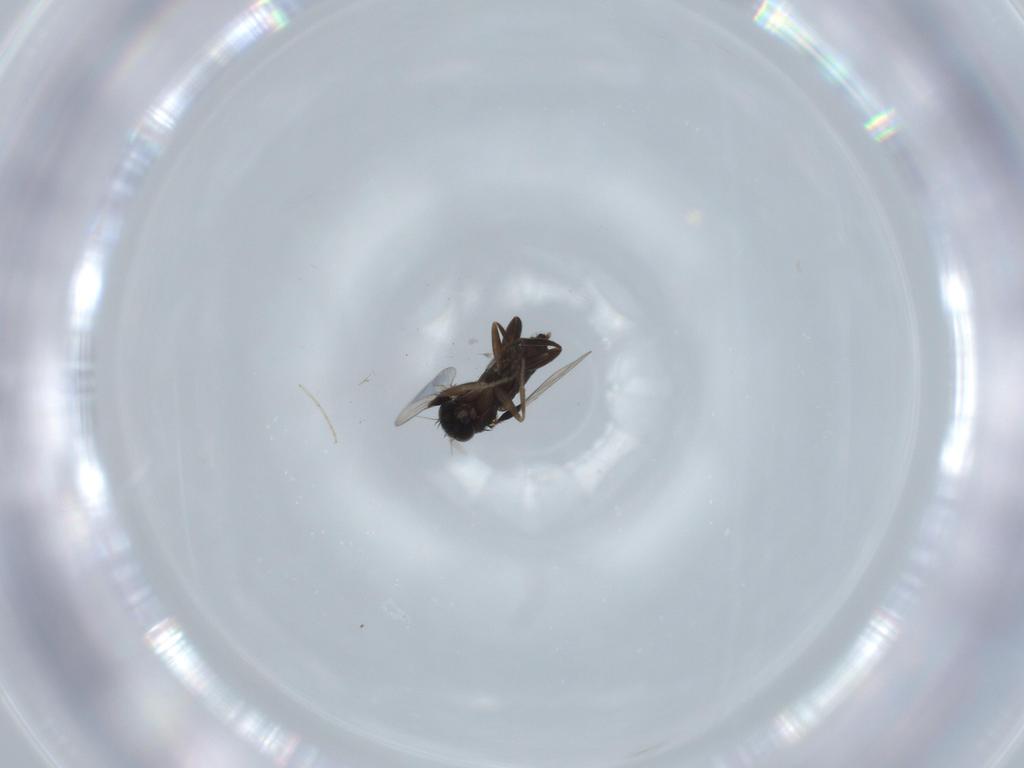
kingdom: Animalia
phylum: Arthropoda
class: Insecta
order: Diptera
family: Phoridae
